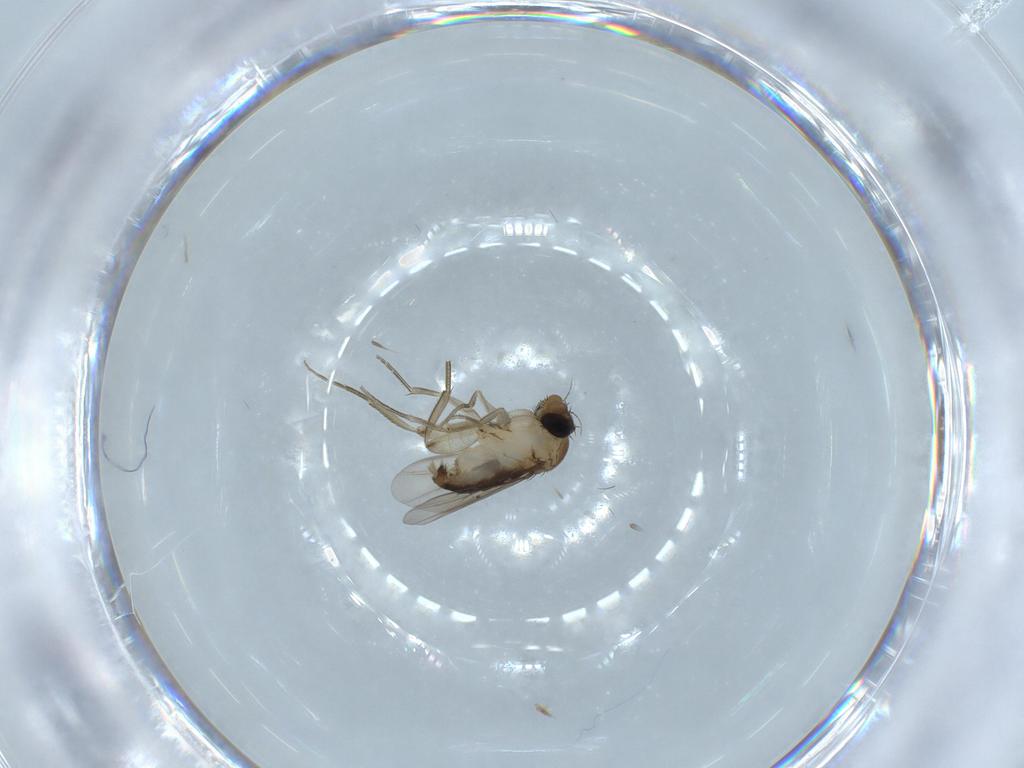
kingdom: Animalia
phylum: Arthropoda
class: Insecta
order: Diptera
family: Phoridae
